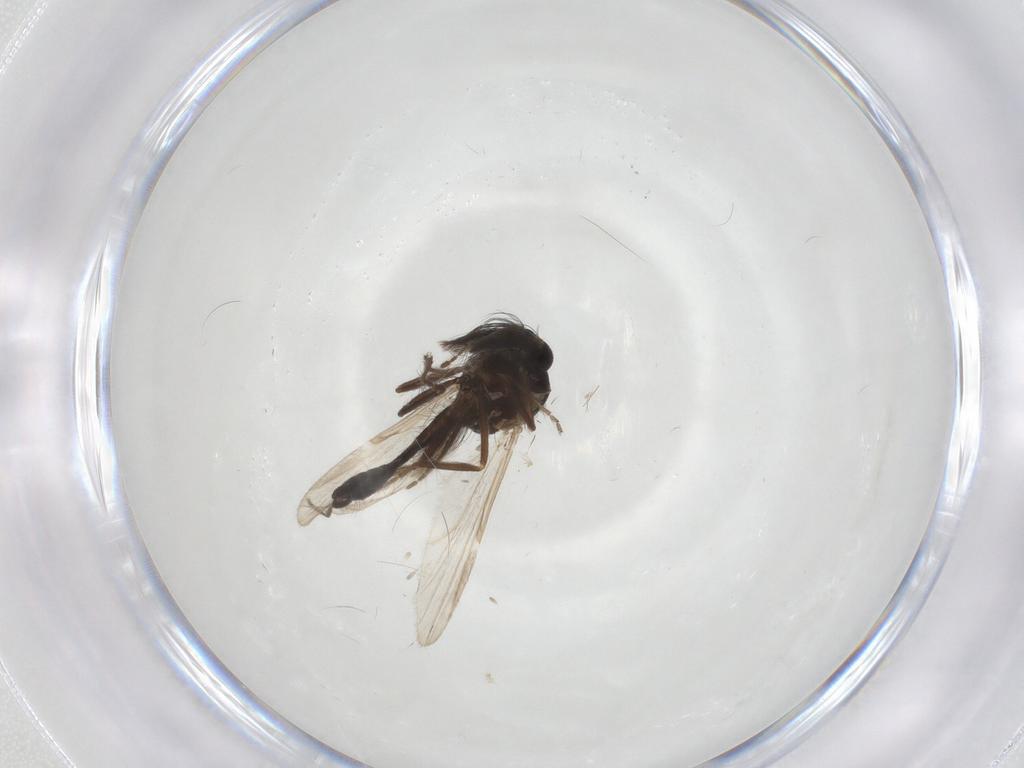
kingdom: Animalia
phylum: Arthropoda
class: Insecta
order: Diptera
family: Ceratopogonidae
